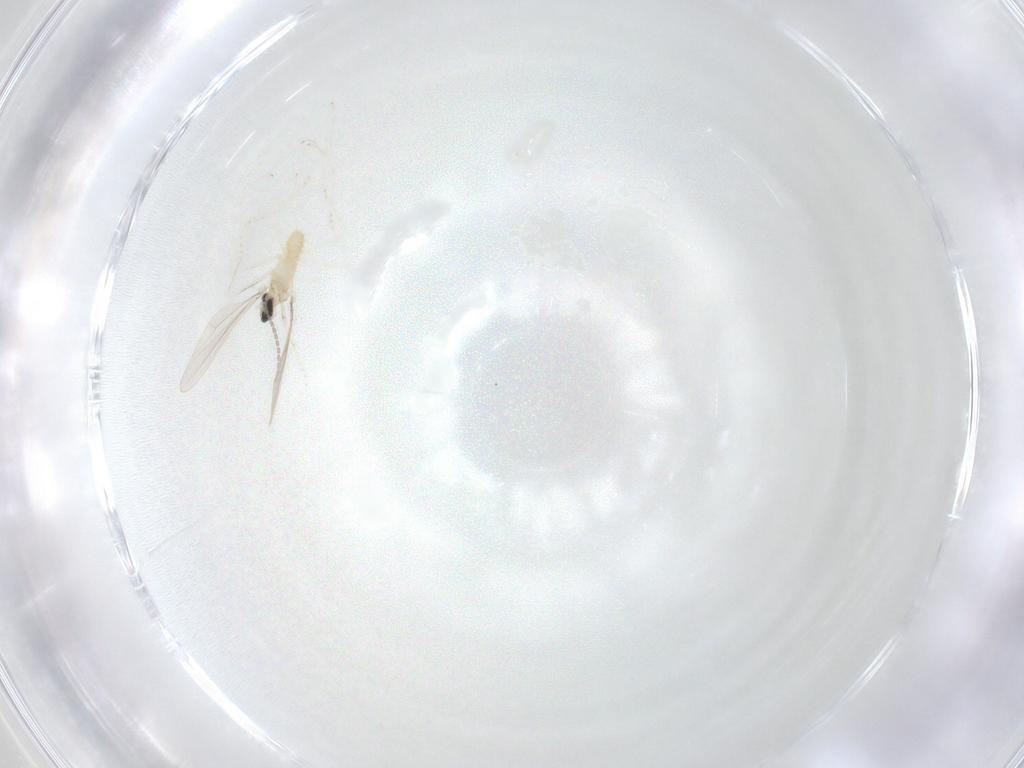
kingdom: Animalia
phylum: Arthropoda
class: Insecta
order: Diptera
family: Cecidomyiidae
